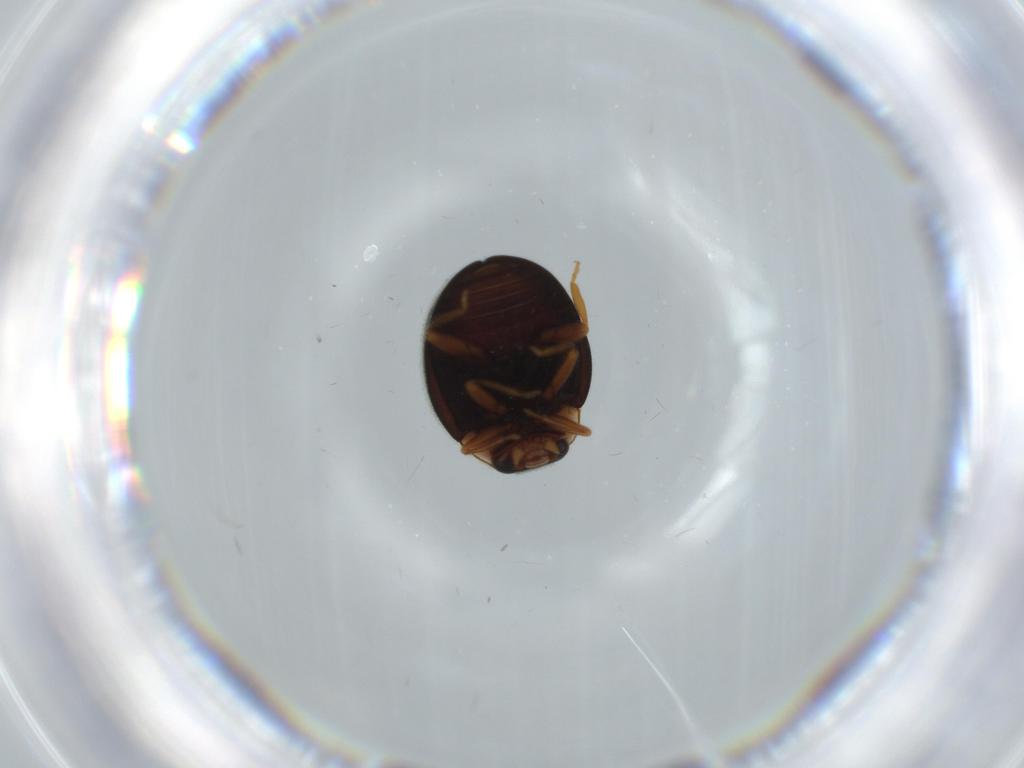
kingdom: Animalia
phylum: Arthropoda
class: Insecta
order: Coleoptera
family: Coccinellidae
